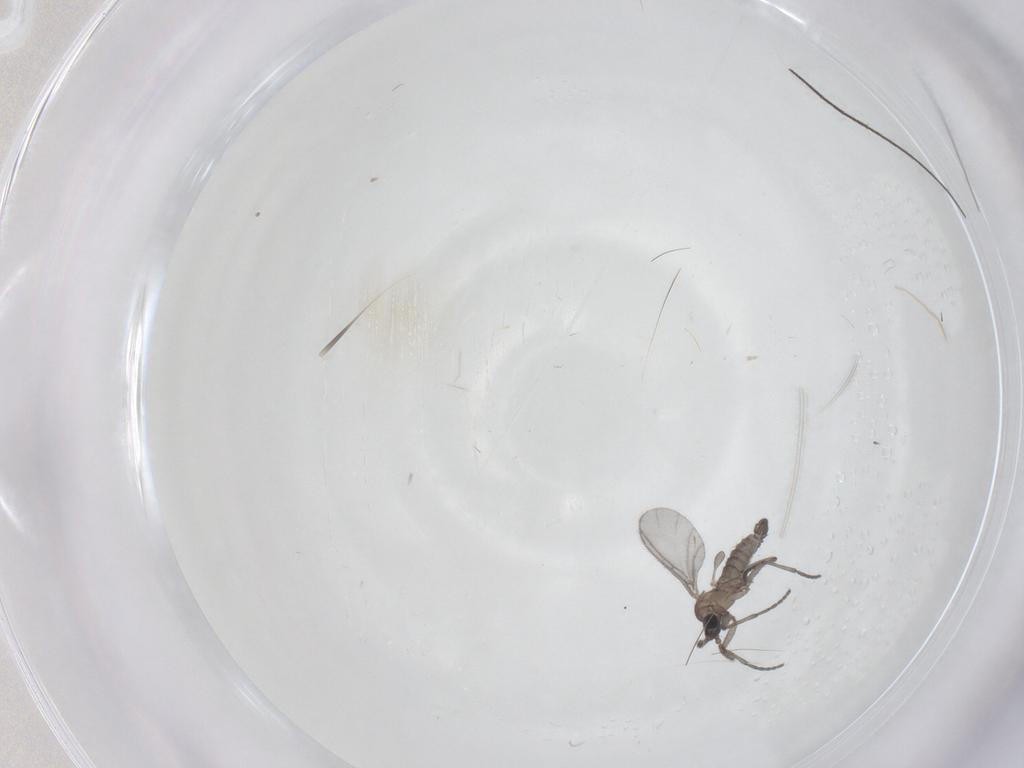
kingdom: Animalia
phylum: Arthropoda
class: Insecta
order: Diptera
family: Sciaridae
